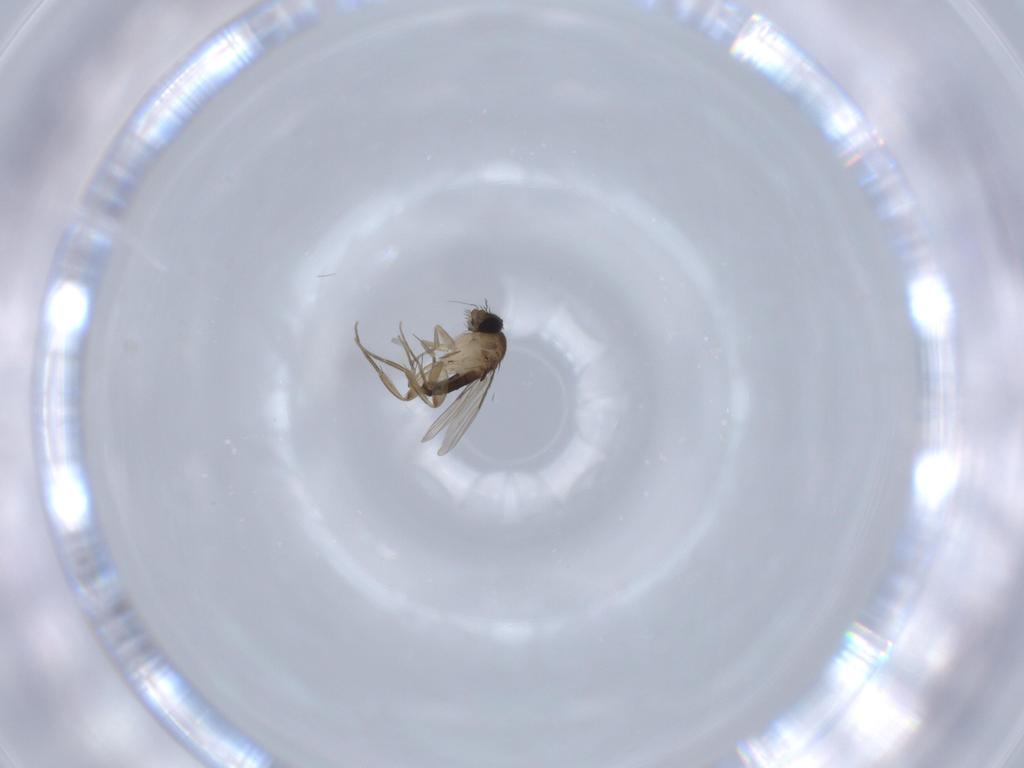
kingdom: Animalia
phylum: Arthropoda
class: Insecta
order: Diptera
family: Phoridae
